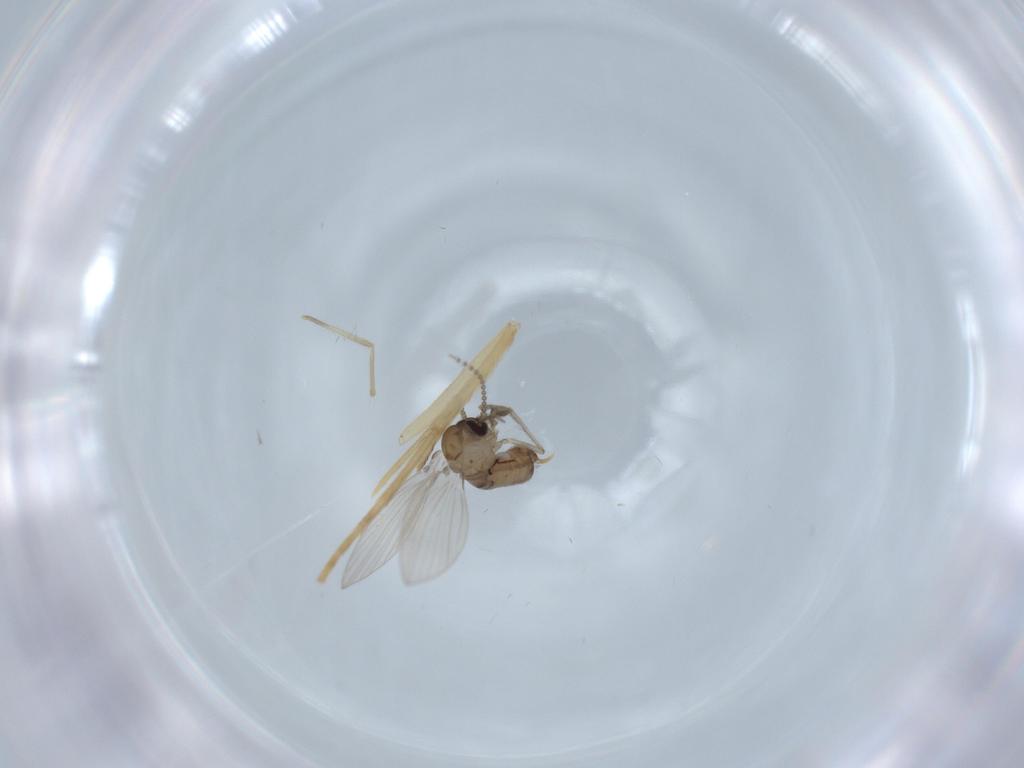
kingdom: Animalia
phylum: Arthropoda
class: Insecta
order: Diptera
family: Psychodidae
